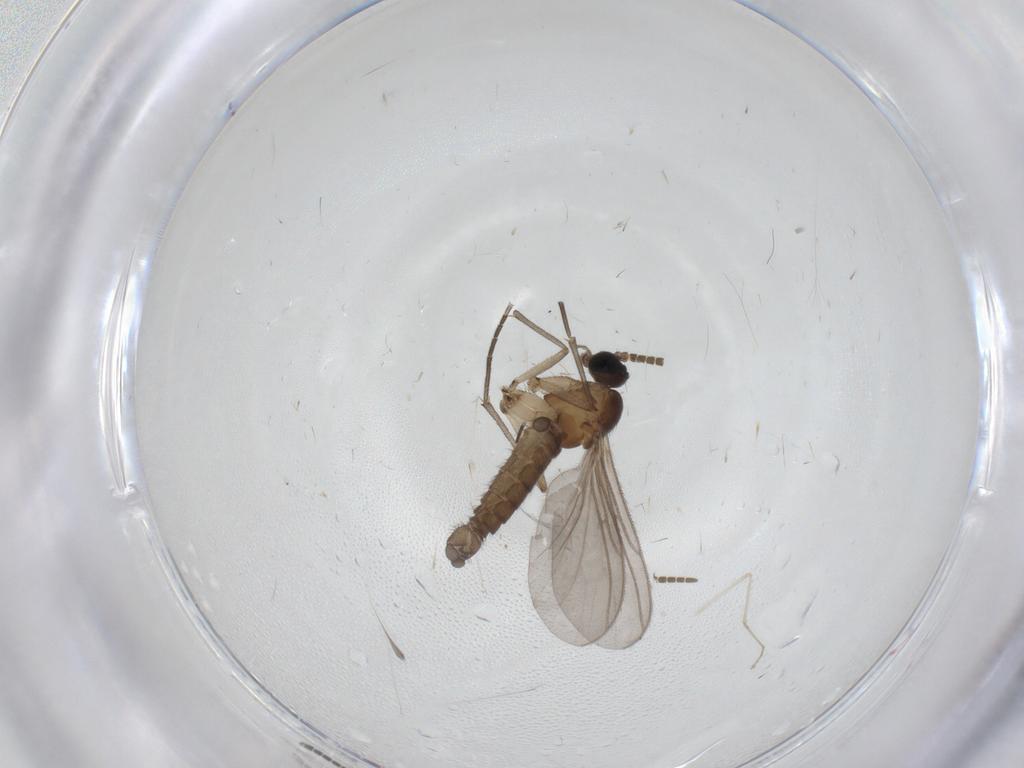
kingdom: Animalia
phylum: Arthropoda
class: Insecta
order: Diptera
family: Cecidomyiidae
